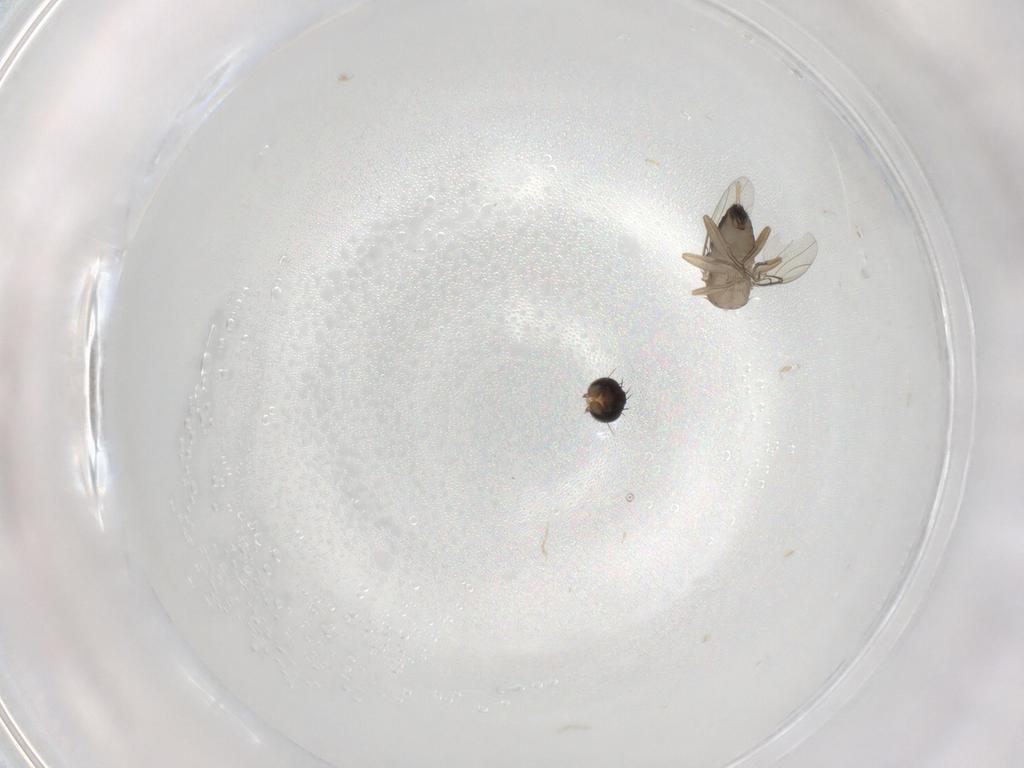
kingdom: Animalia
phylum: Arthropoda
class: Insecta
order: Diptera
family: Phoridae
